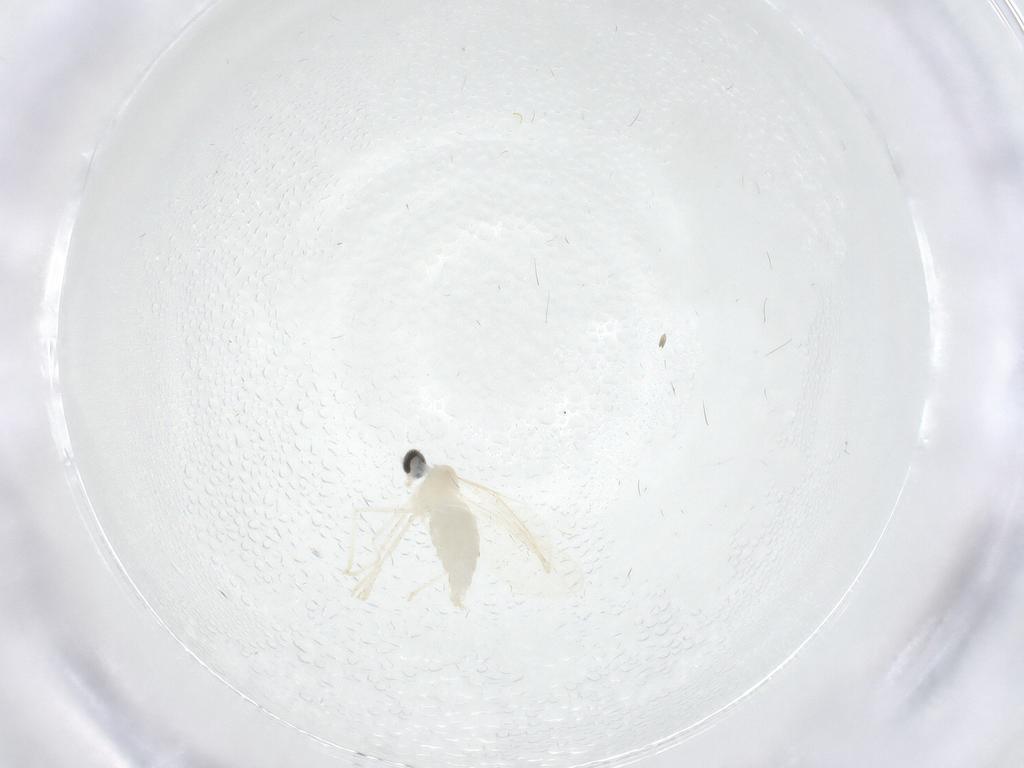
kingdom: Animalia
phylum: Arthropoda
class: Insecta
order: Diptera
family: Cecidomyiidae
